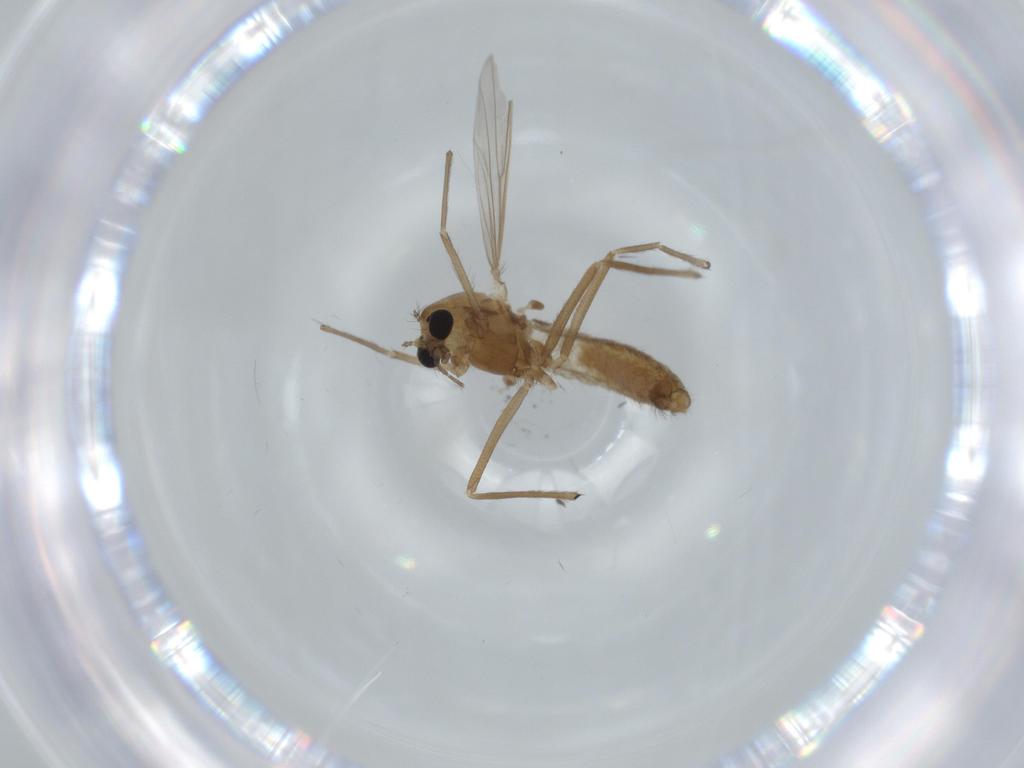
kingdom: Animalia
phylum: Arthropoda
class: Insecta
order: Diptera
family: Chironomidae
